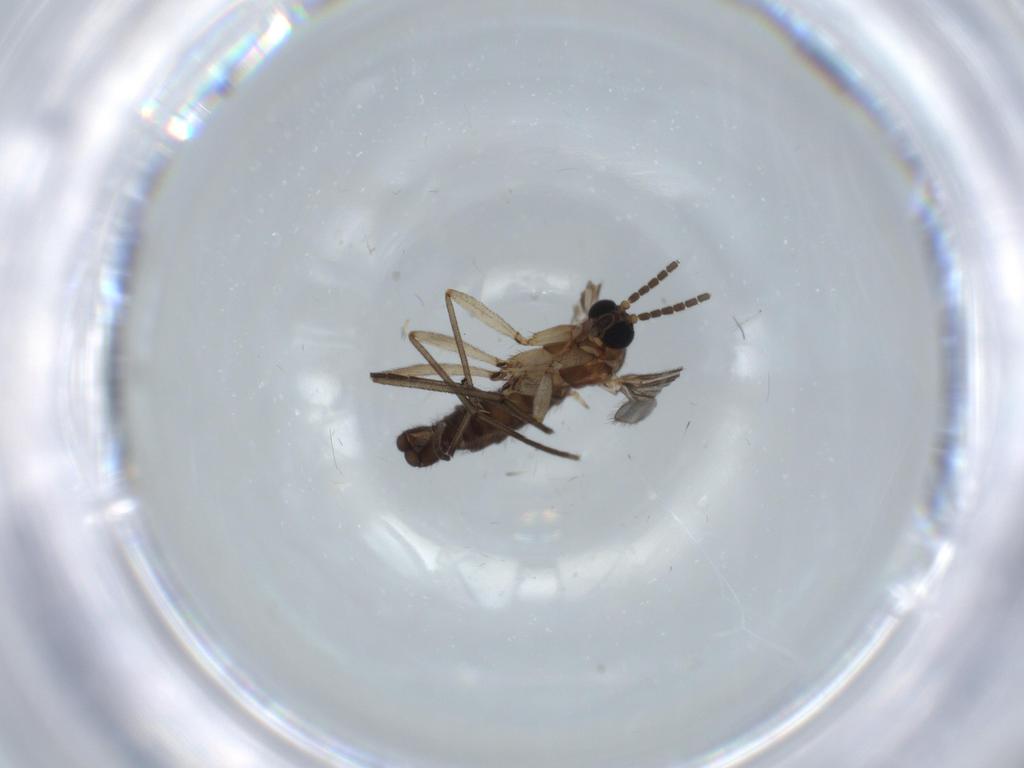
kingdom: Animalia
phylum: Arthropoda
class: Insecta
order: Diptera
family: Sciaridae
